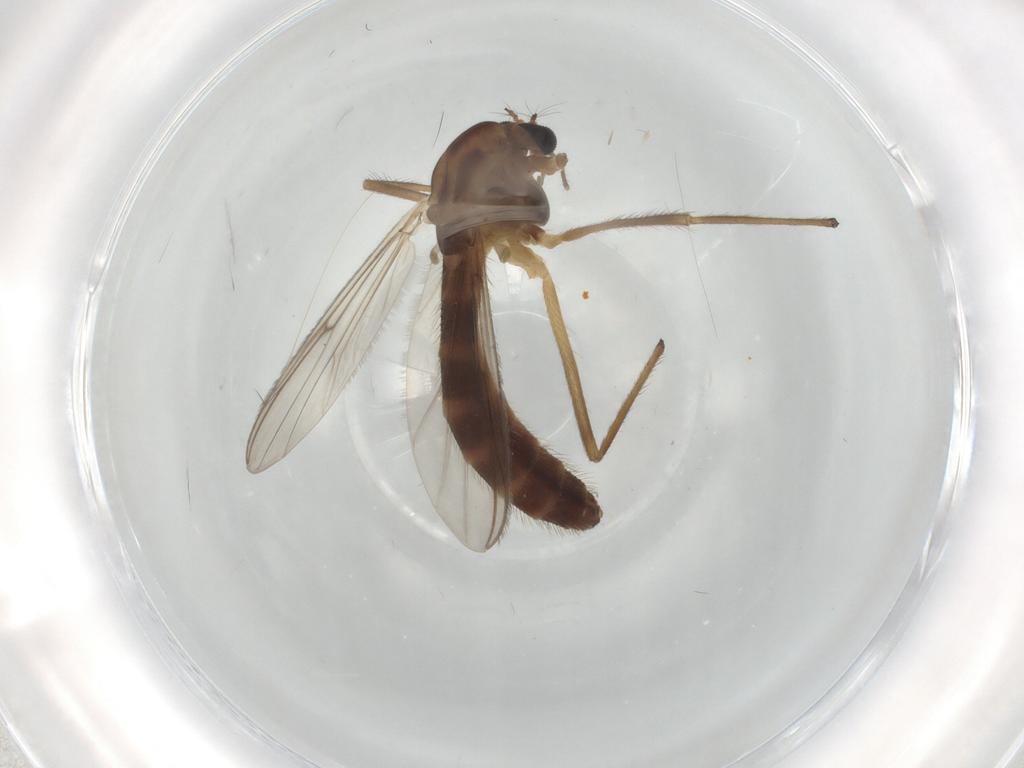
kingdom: Animalia
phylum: Arthropoda
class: Insecta
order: Diptera
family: Chironomidae
